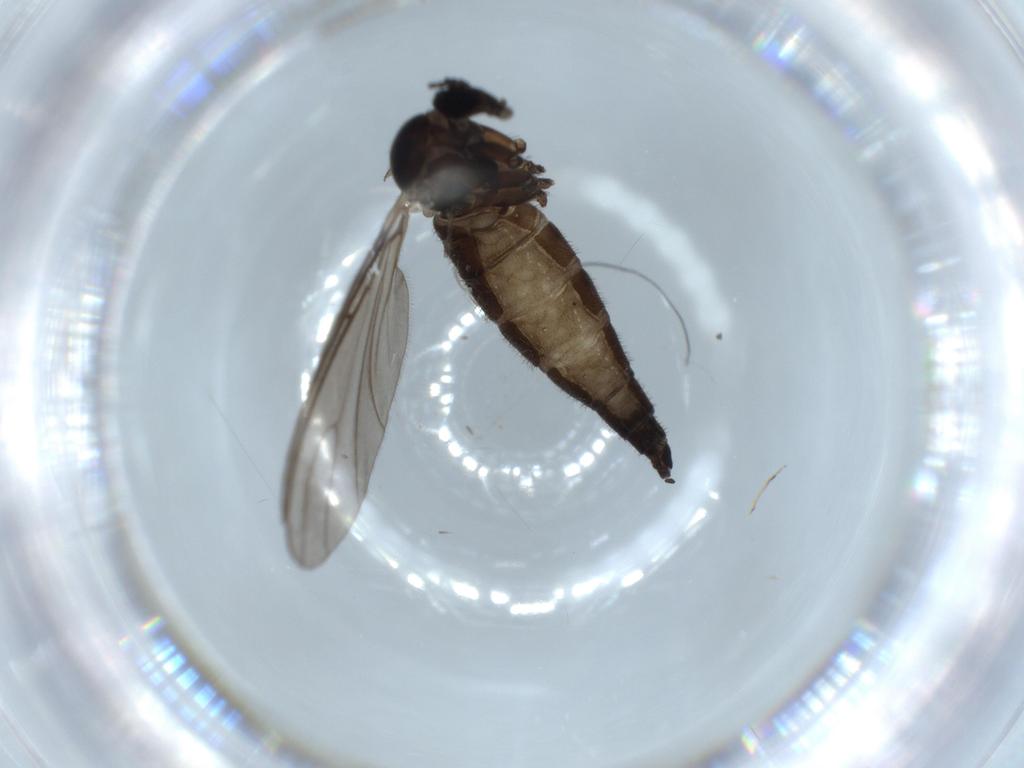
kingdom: Animalia
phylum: Arthropoda
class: Insecta
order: Diptera
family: Sciaridae
